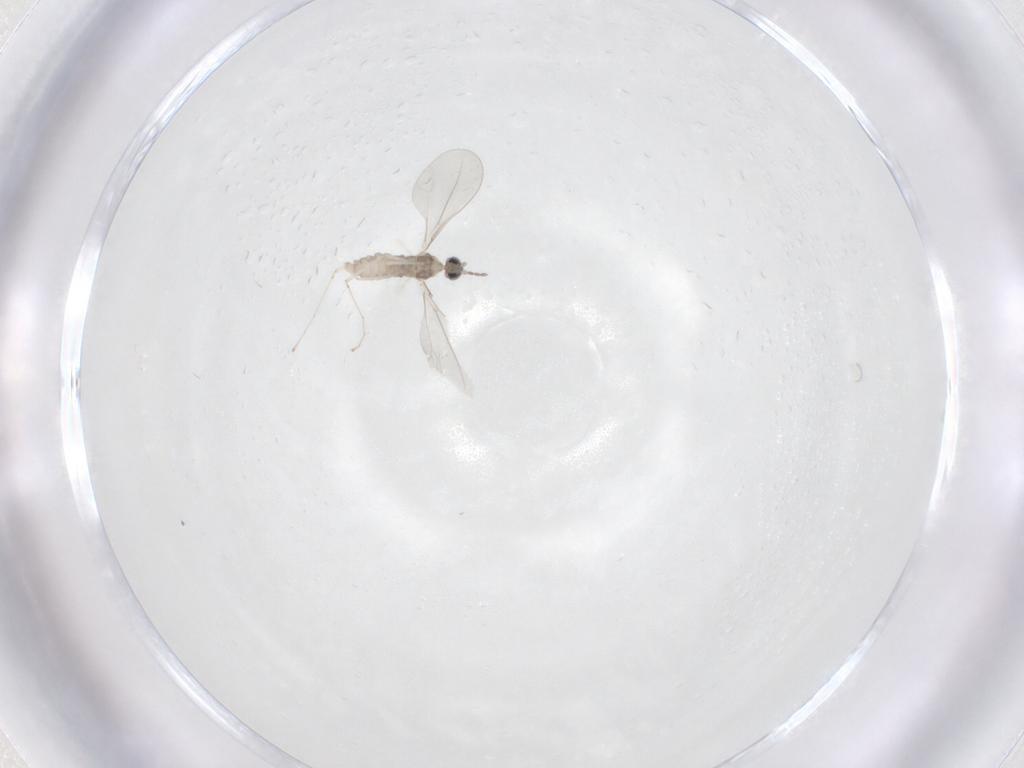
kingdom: Animalia
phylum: Arthropoda
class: Insecta
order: Diptera
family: Cecidomyiidae
